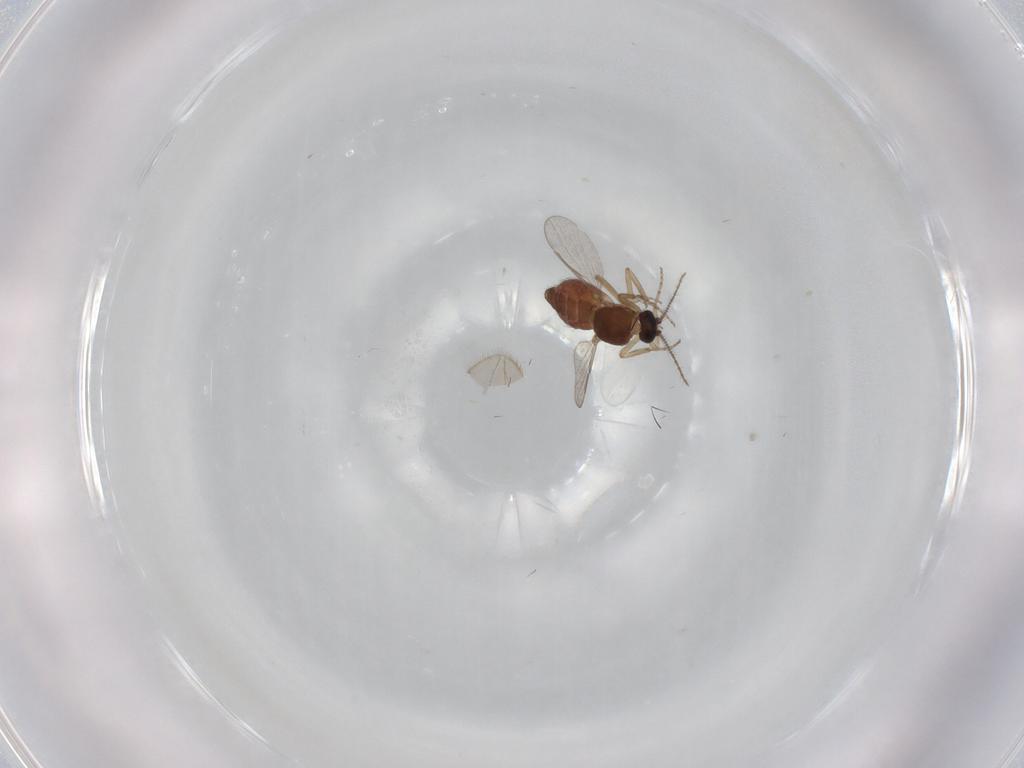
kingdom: Animalia
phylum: Arthropoda
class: Insecta
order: Diptera
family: Limoniidae
